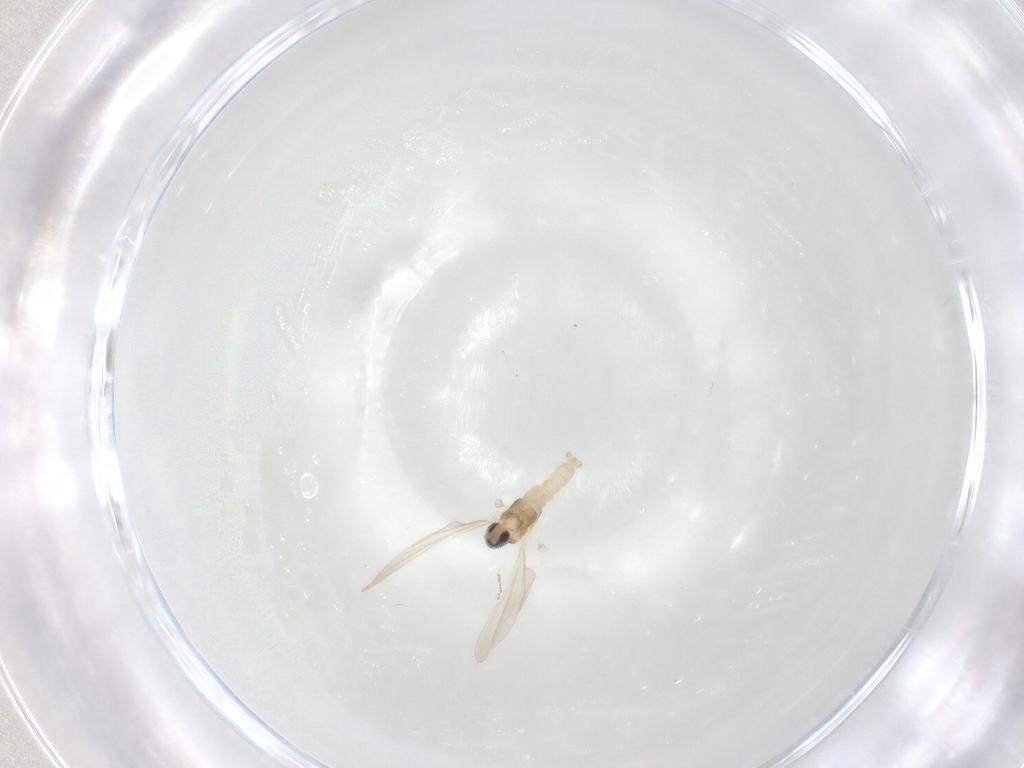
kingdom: Animalia
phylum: Arthropoda
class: Insecta
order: Diptera
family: Cecidomyiidae
